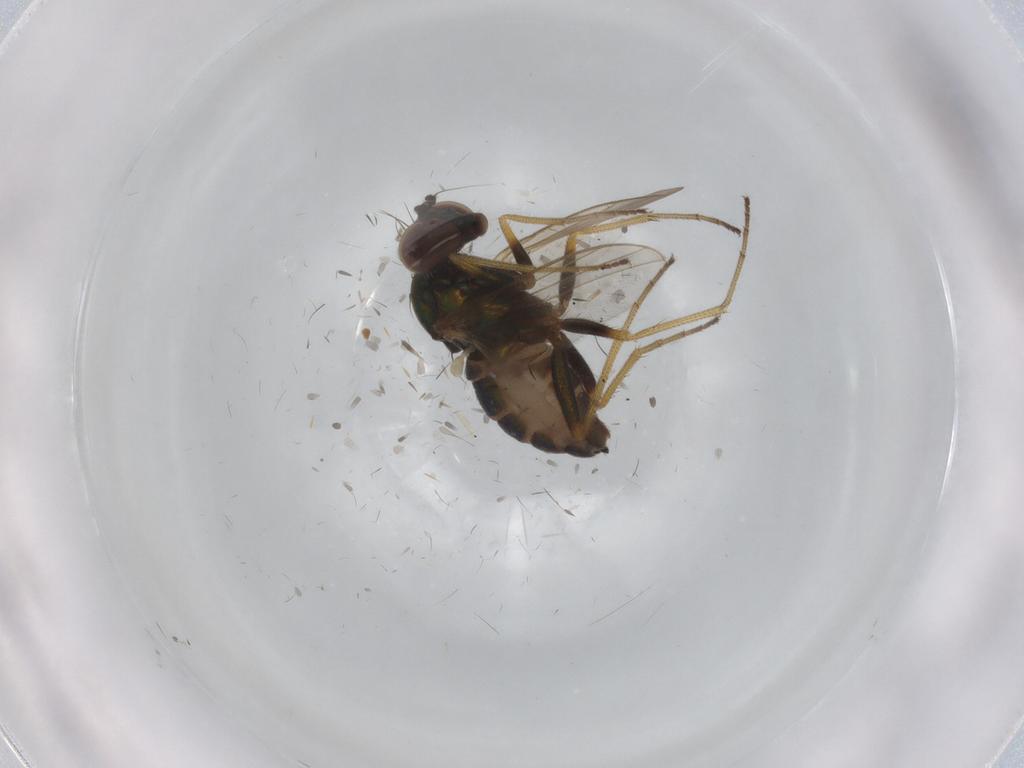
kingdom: Animalia
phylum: Arthropoda
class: Insecta
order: Diptera
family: Dolichopodidae
